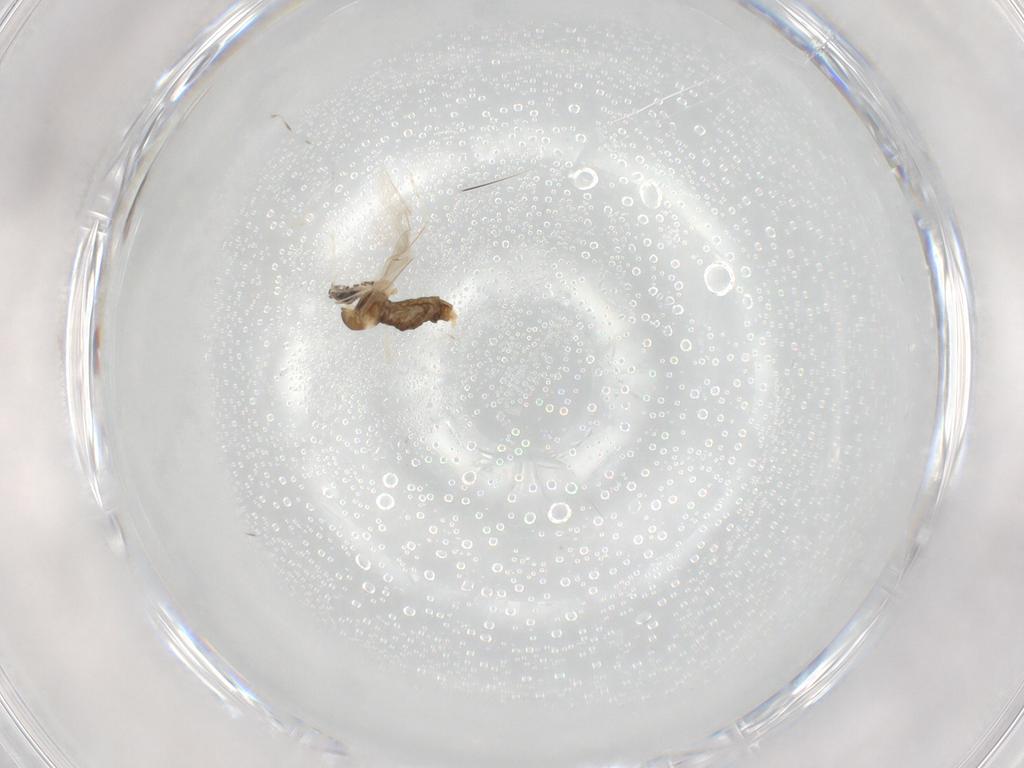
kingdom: Animalia
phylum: Arthropoda
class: Insecta
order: Diptera
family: Cecidomyiidae
